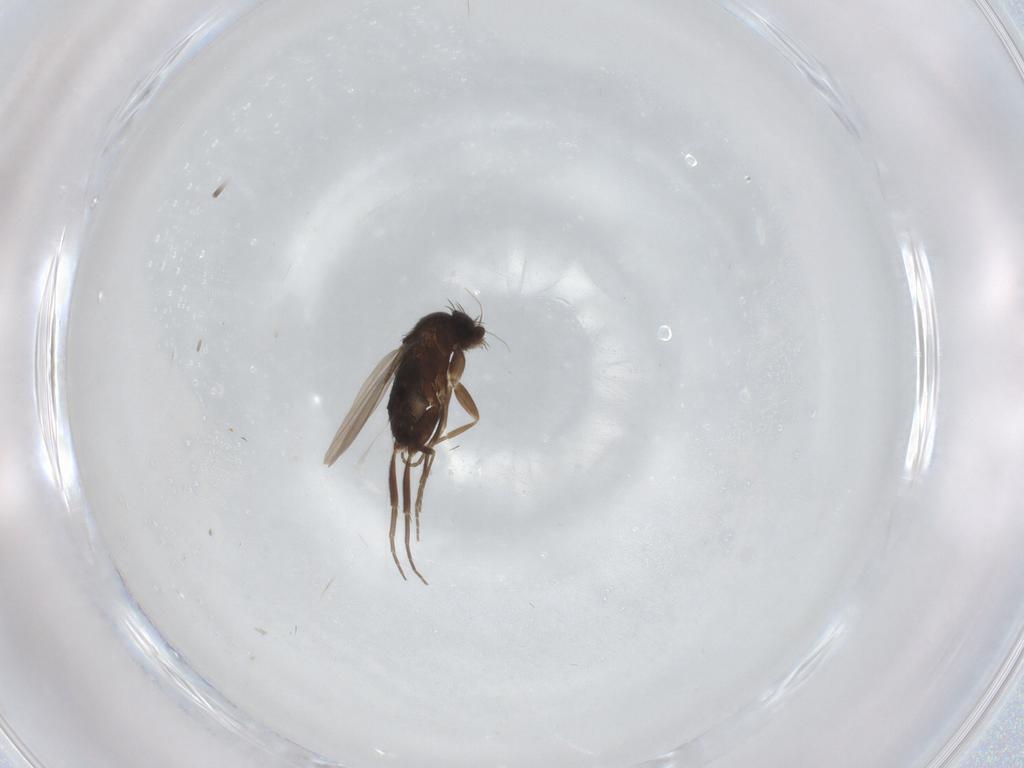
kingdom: Animalia
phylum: Arthropoda
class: Insecta
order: Diptera
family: Phoridae
